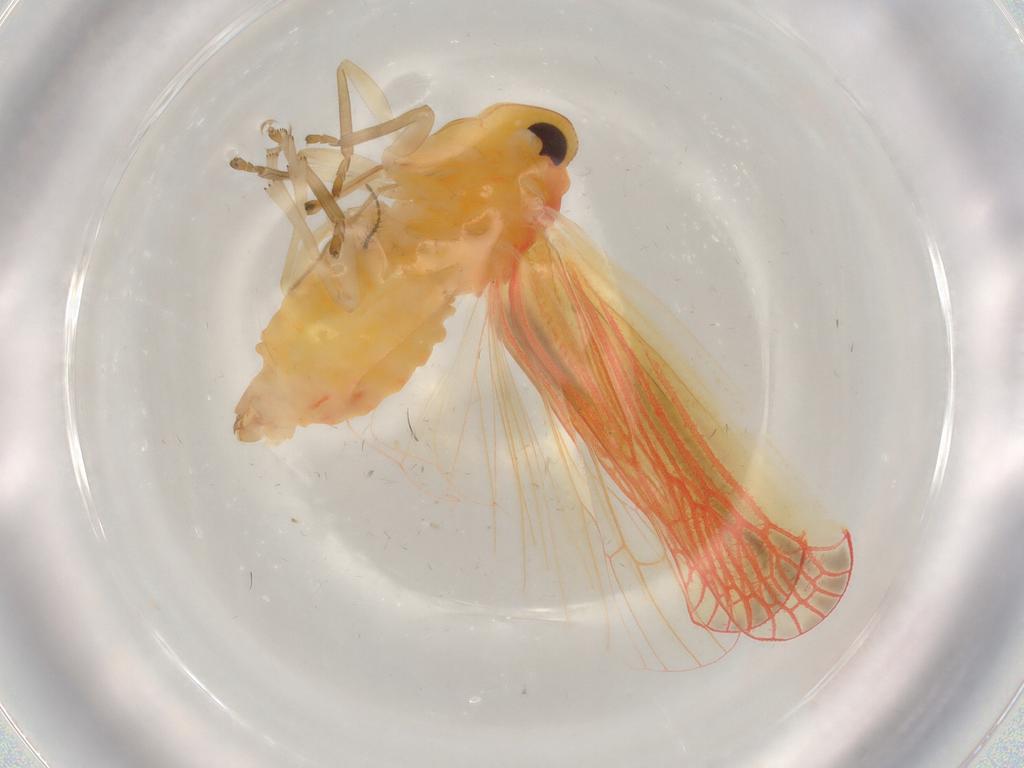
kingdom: Animalia
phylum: Arthropoda
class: Insecta
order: Hemiptera
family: Derbidae
